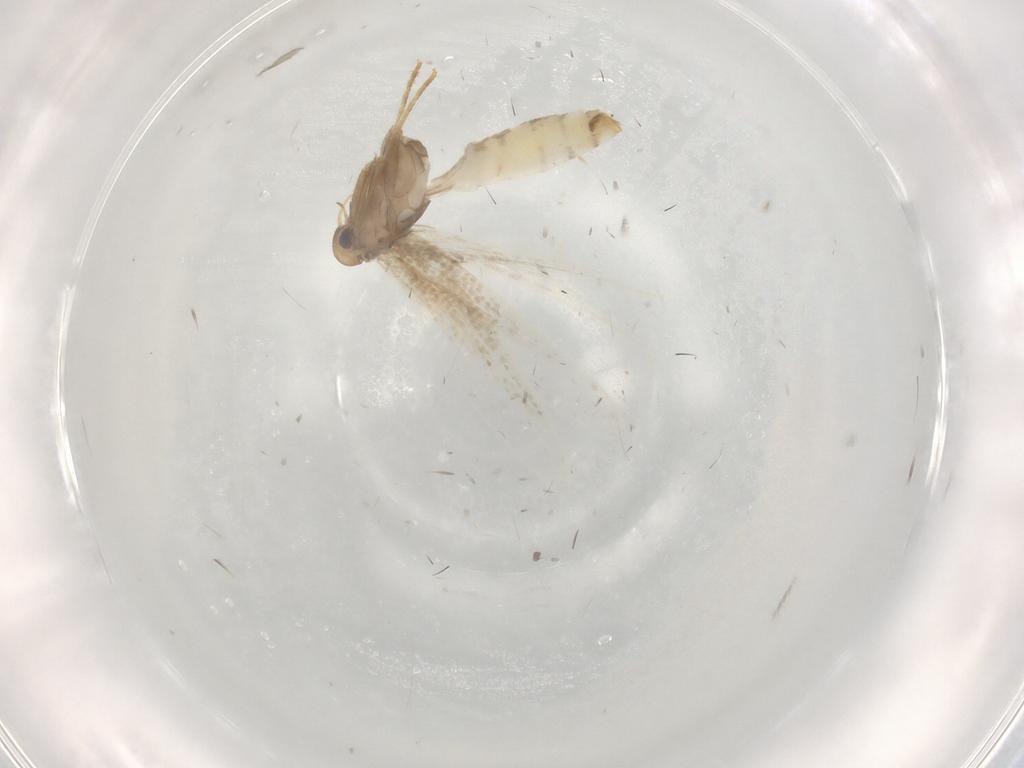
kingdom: Animalia
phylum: Arthropoda
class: Insecta
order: Lepidoptera
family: Gracillariidae
